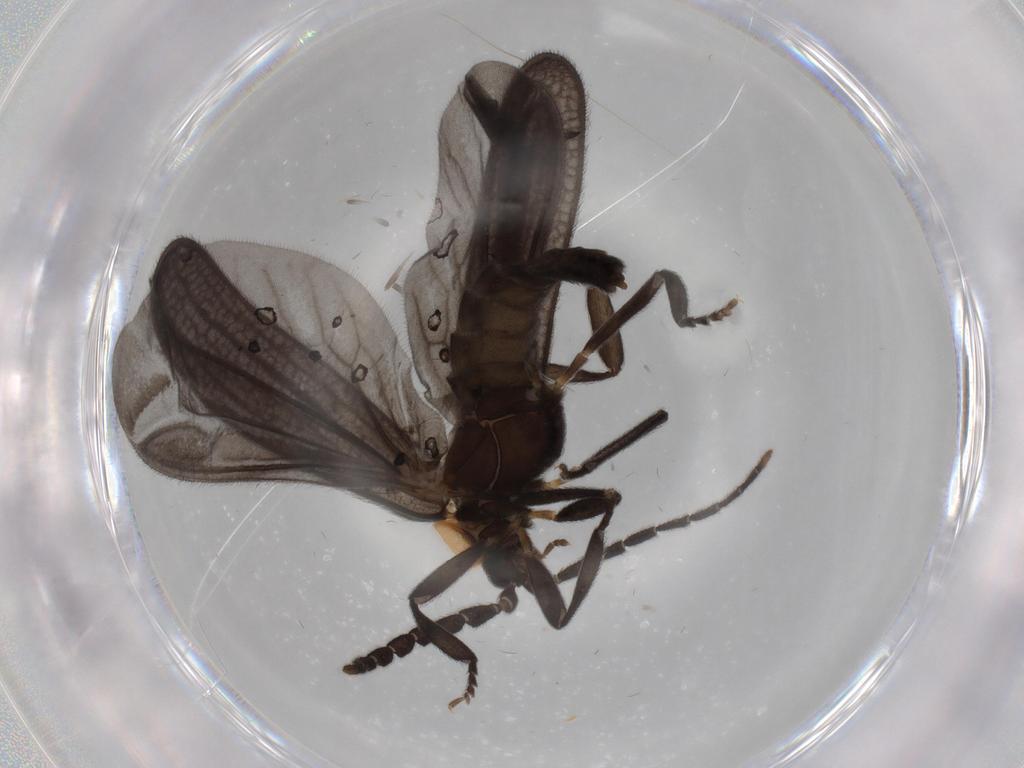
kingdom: Animalia
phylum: Arthropoda
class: Insecta
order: Coleoptera
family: Lycidae
